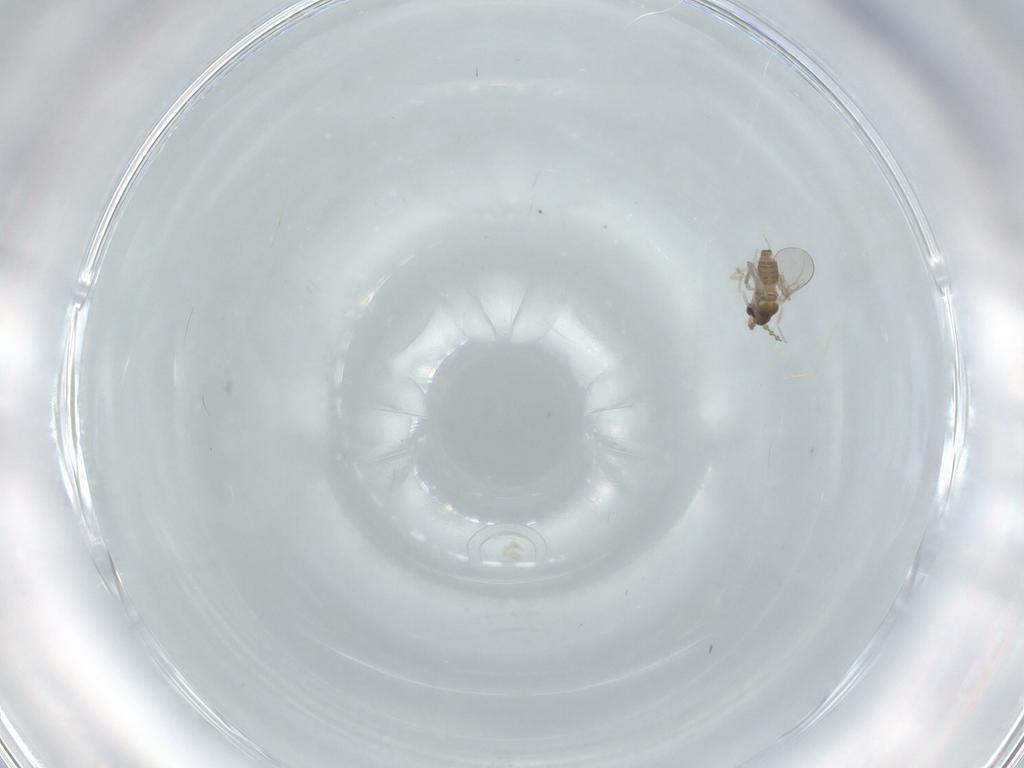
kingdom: Animalia
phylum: Arthropoda
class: Insecta
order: Diptera
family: Cecidomyiidae
